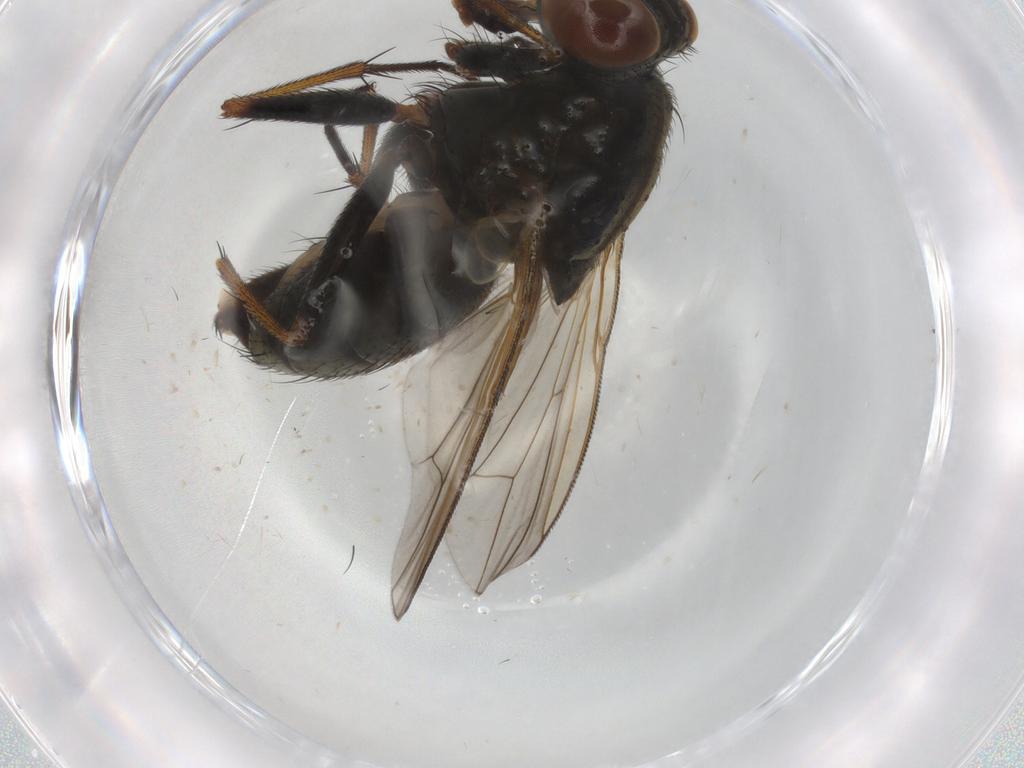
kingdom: Animalia
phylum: Arthropoda
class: Insecta
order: Diptera
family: Muscidae
